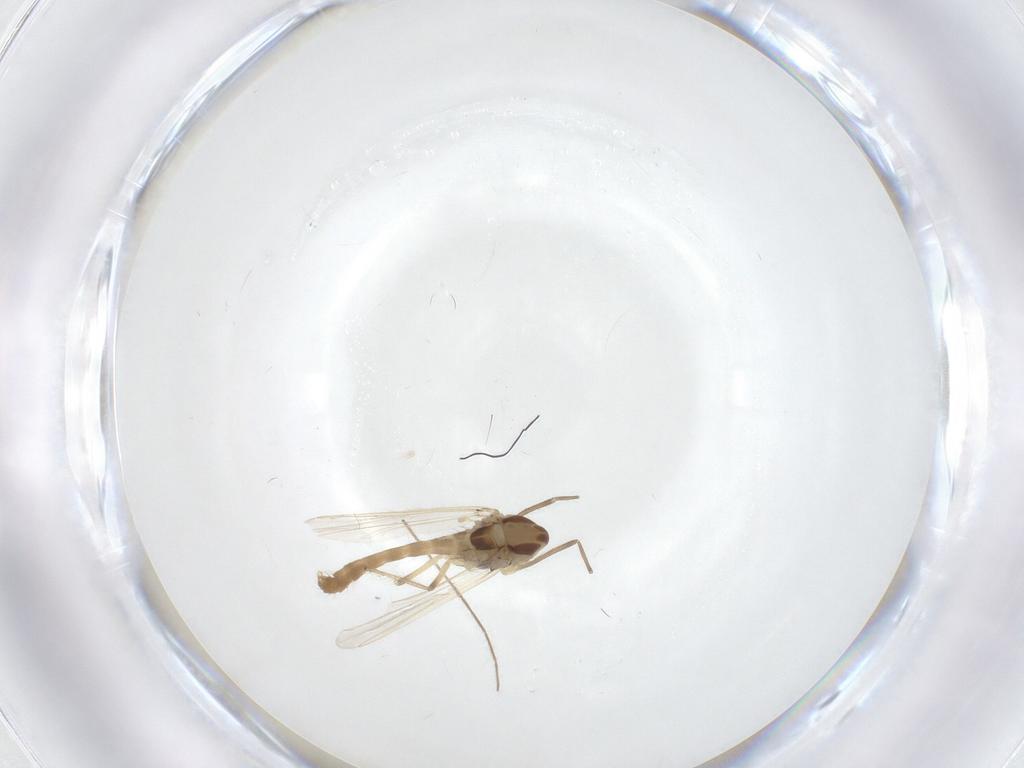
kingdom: Animalia
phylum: Arthropoda
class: Insecta
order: Diptera
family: Chironomidae
